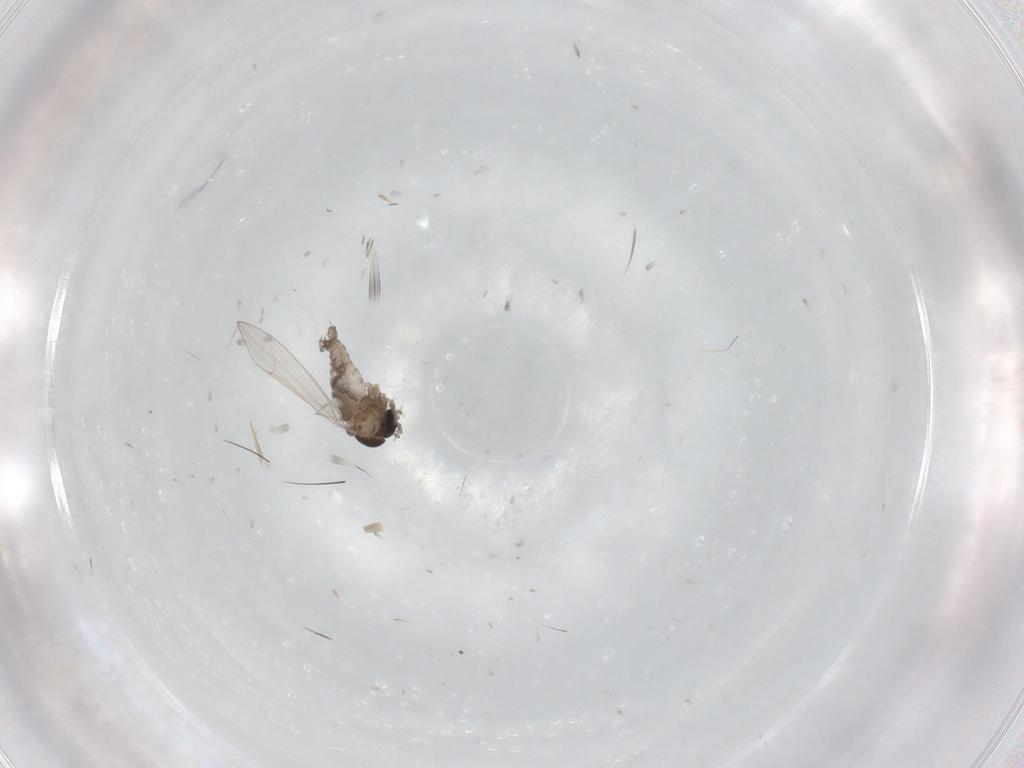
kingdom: Animalia
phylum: Arthropoda
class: Insecta
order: Diptera
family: Psychodidae
